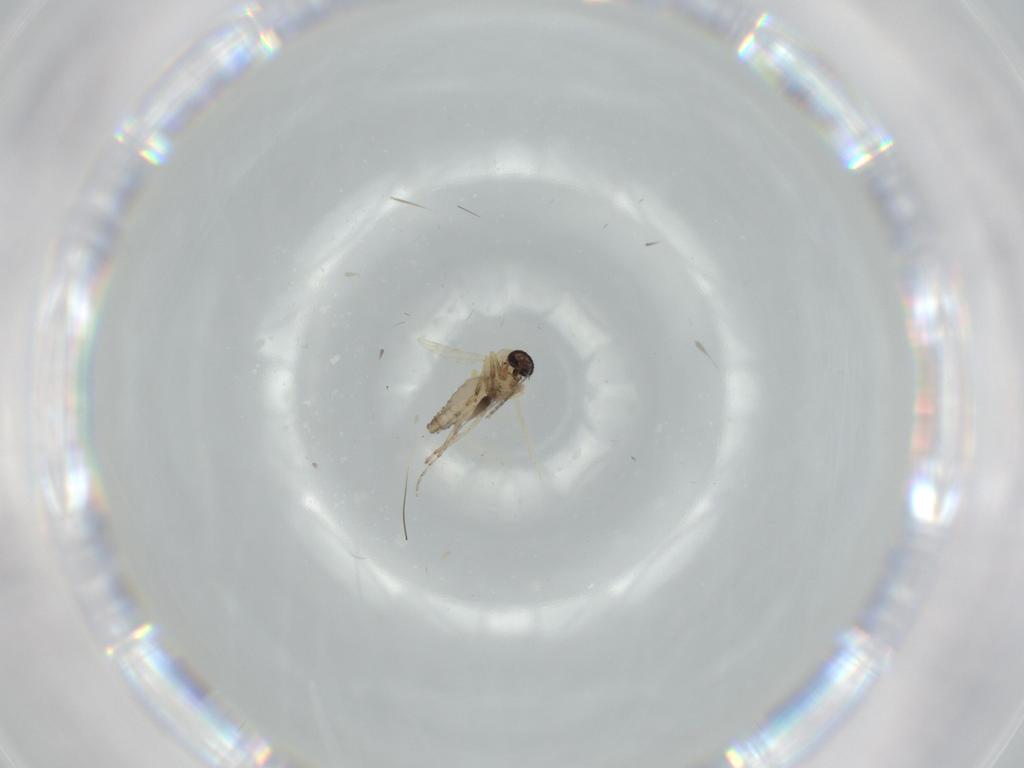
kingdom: Animalia
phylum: Arthropoda
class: Insecta
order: Diptera
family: Ceratopogonidae
